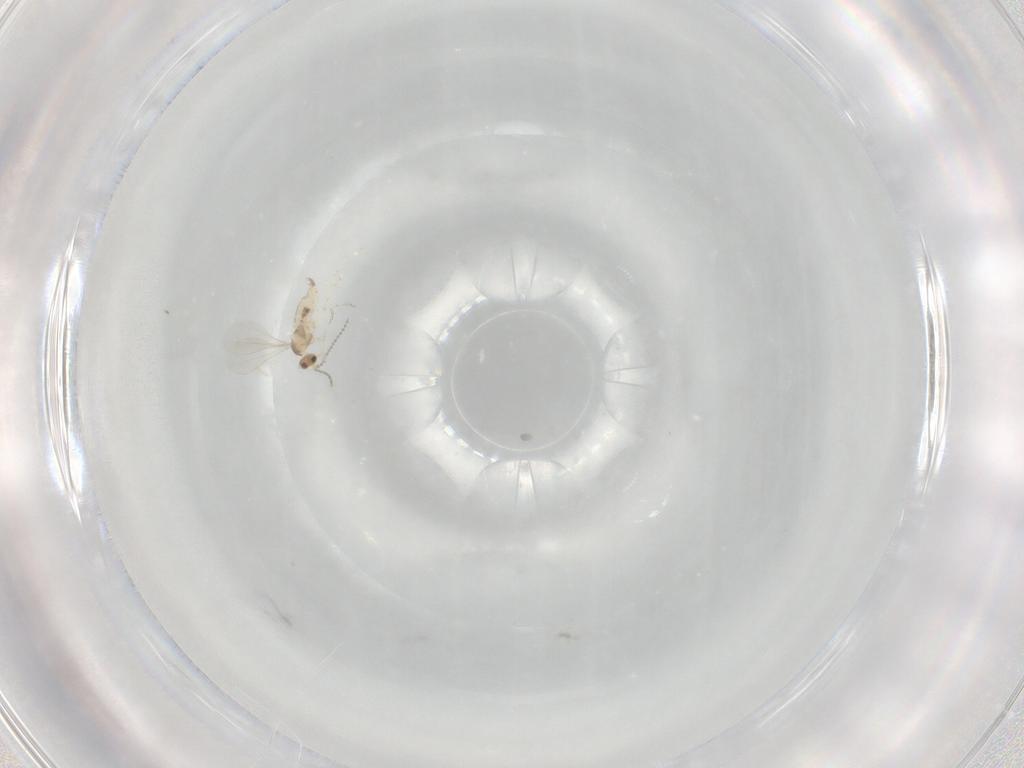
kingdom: Animalia
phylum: Arthropoda
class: Insecta
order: Diptera
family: Cecidomyiidae
